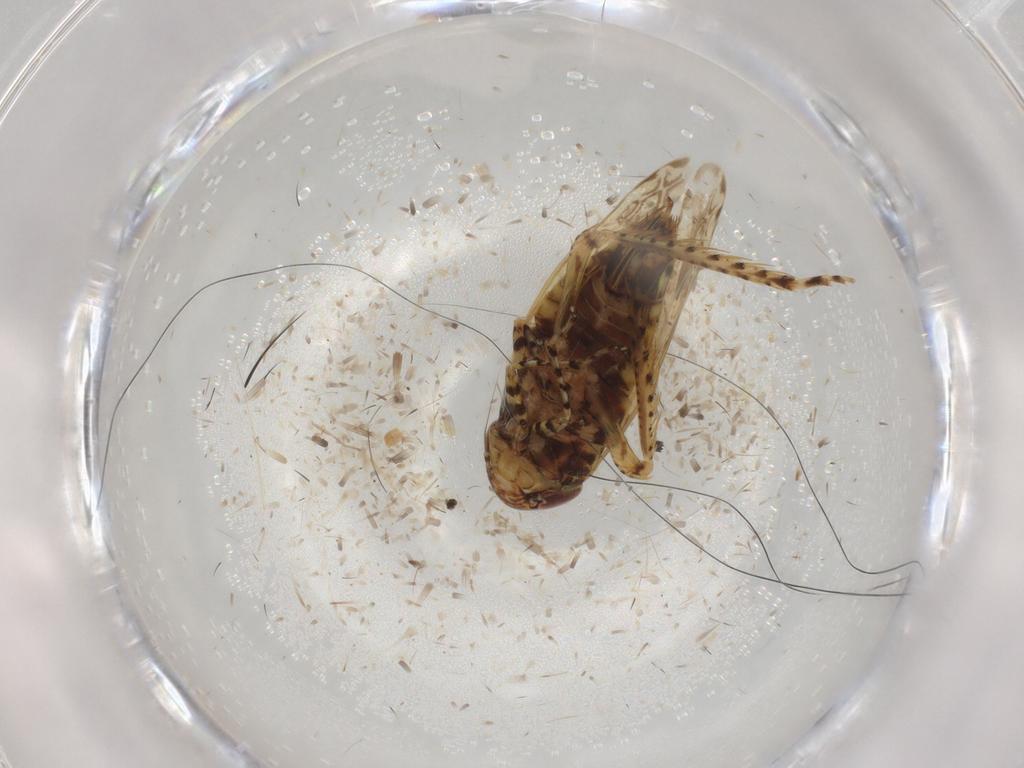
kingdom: Animalia
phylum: Arthropoda
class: Insecta
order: Hemiptera
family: Cicadellidae
